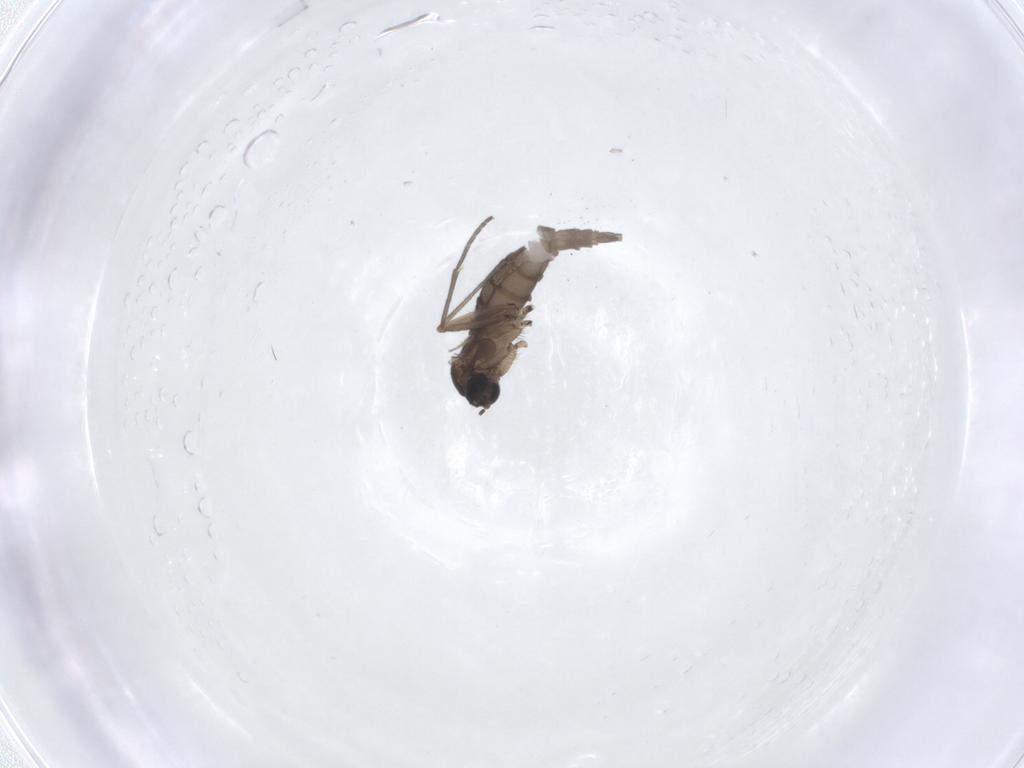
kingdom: Animalia
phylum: Arthropoda
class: Insecta
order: Diptera
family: Sciaridae
